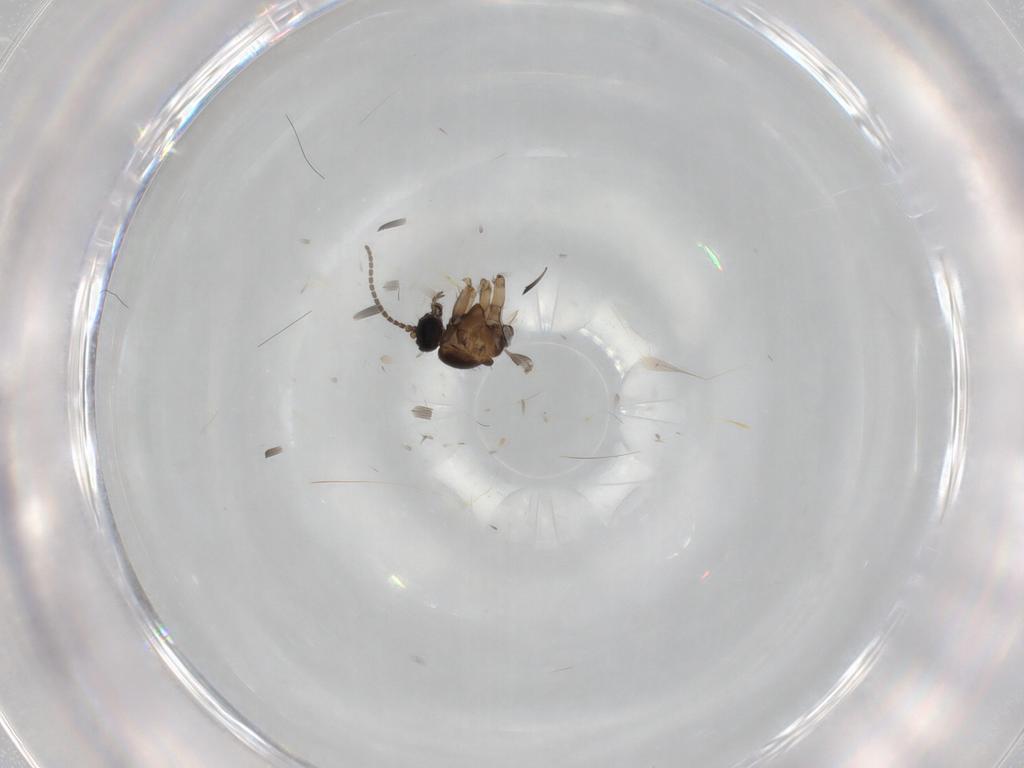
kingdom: Animalia
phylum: Arthropoda
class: Insecta
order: Diptera
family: Sciaridae
